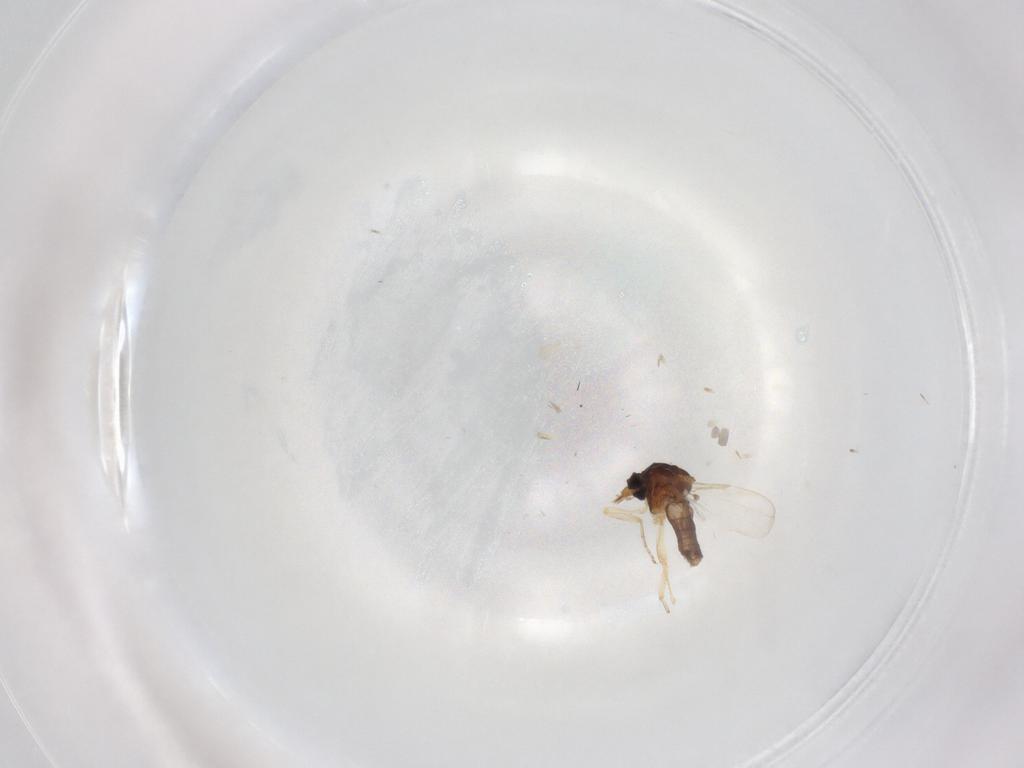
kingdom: Animalia
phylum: Arthropoda
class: Insecta
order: Diptera
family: Ceratopogonidae
